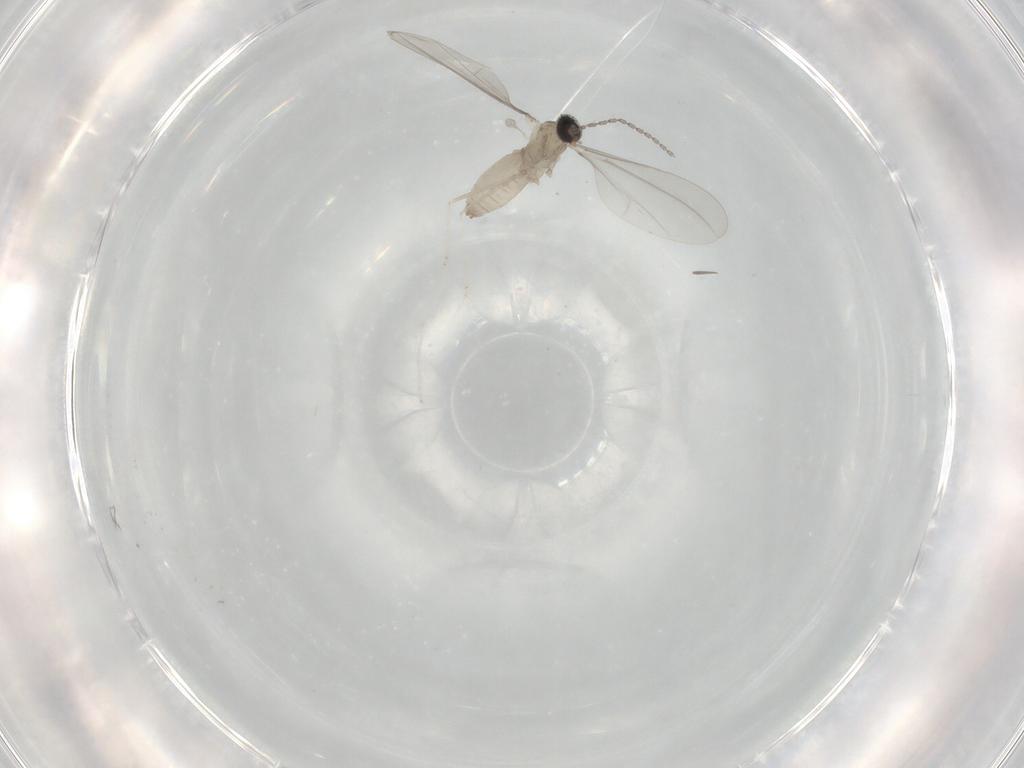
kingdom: Animalia
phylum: Arthropoda
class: Insecta
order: Diptera
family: Cecidomyiidae
